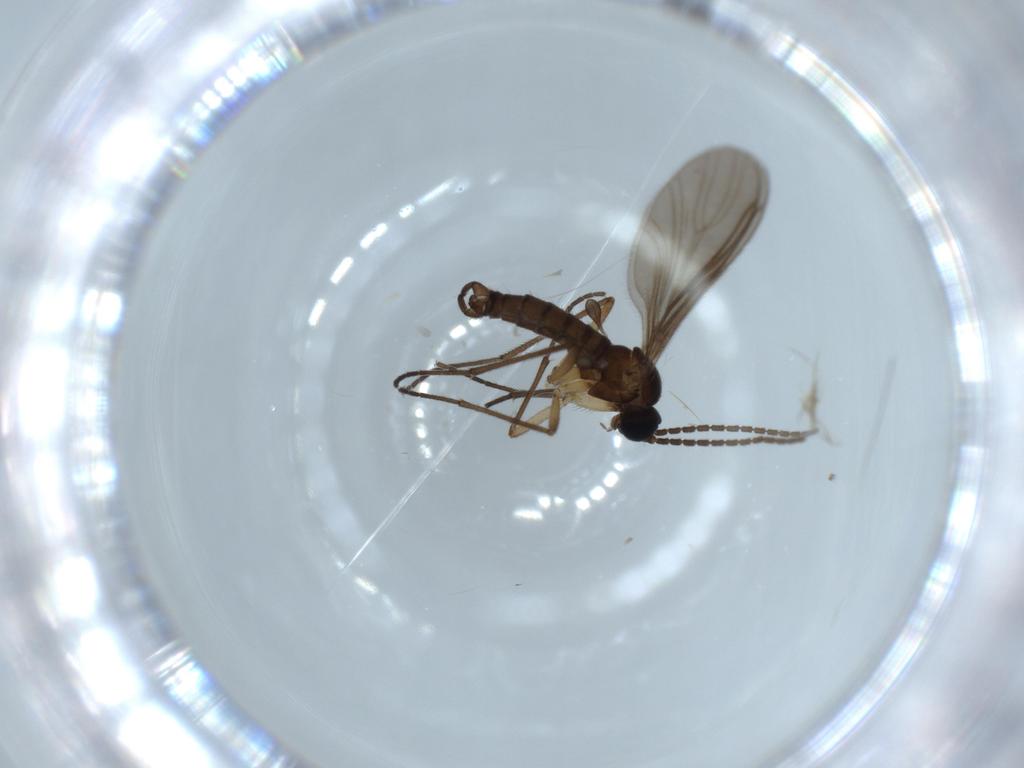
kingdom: Animalia
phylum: Arthropoda
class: Insecta
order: Diptera
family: Sciaridae
